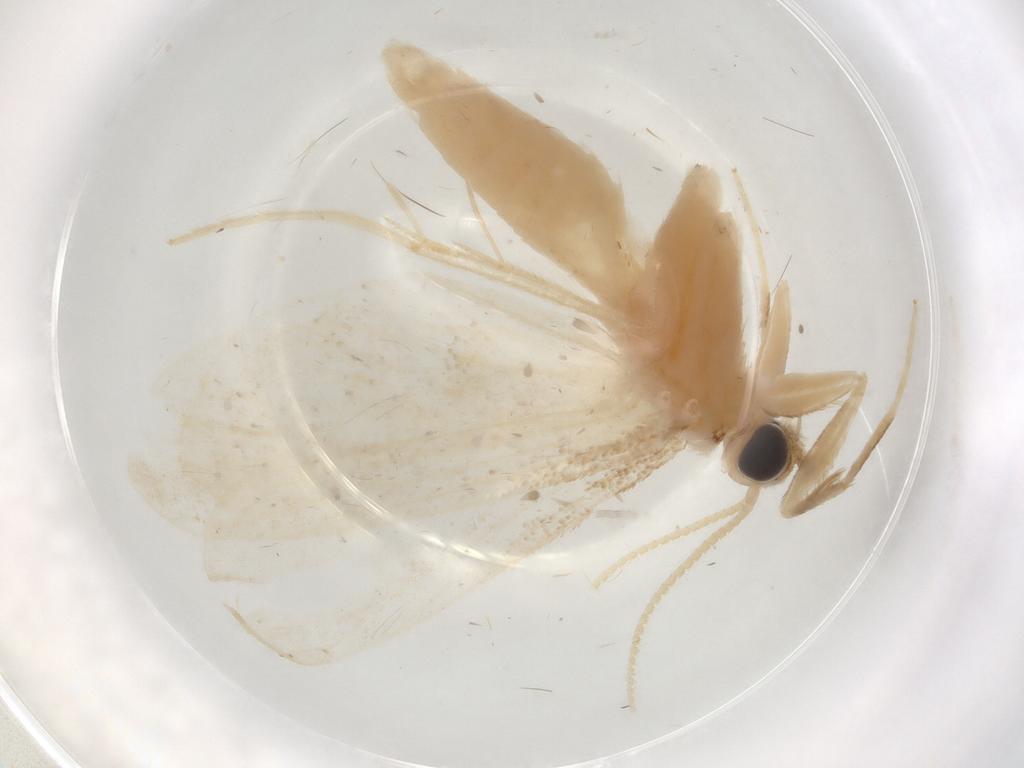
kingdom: Animalia
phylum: Arthropoda
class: Insecta
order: Lepidoptera
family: Crambidae
